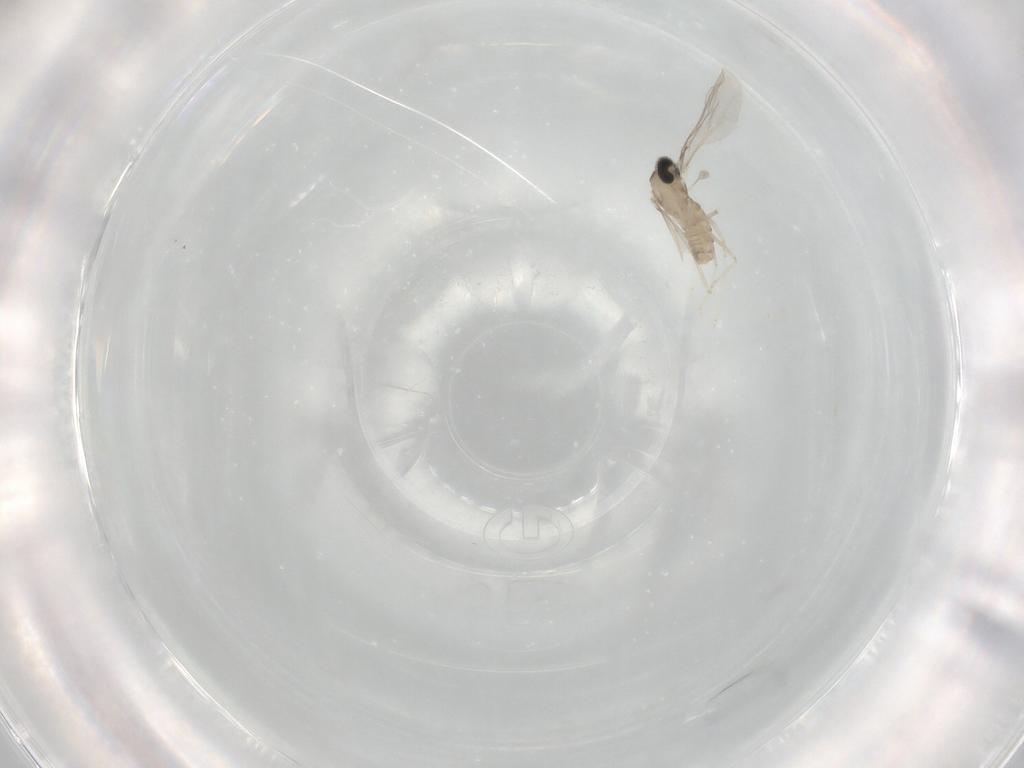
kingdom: Animalia
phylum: Arthropoda
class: Insecta
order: Diptera
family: Cecidomyiidae
